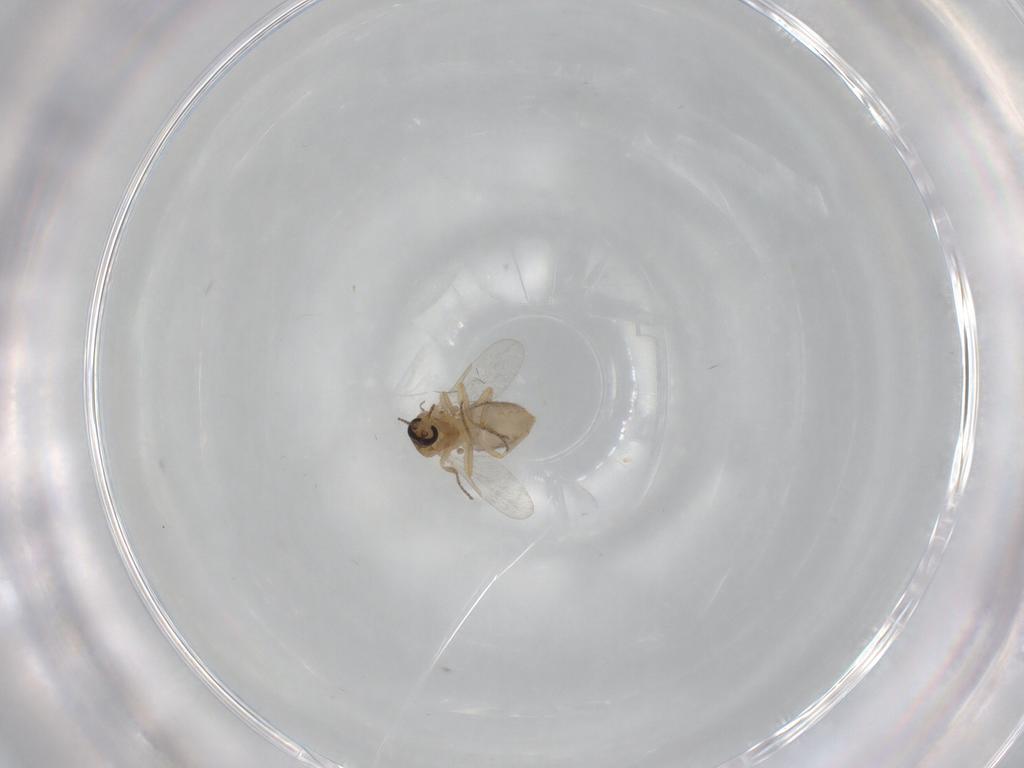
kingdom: Animalia
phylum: Arthropoda
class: Insecta
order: Diptera
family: Ceratopogonidae
